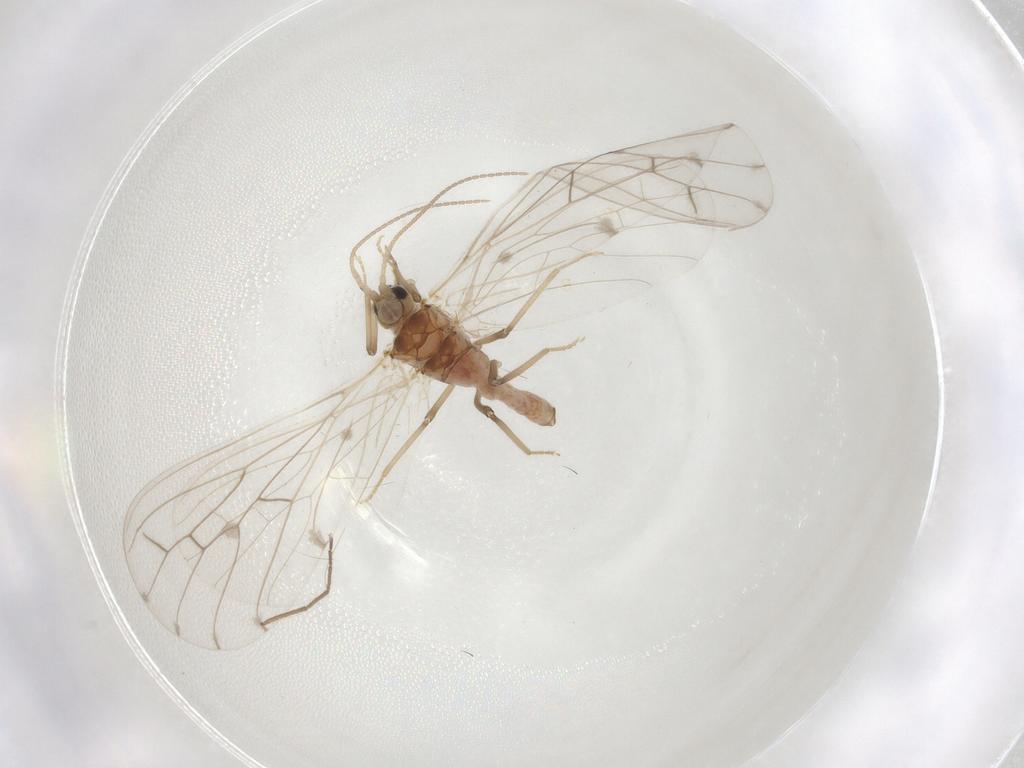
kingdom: Animalia
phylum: Arthropoda
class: Insecta
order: Neuroptera
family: Coniopterygidae
